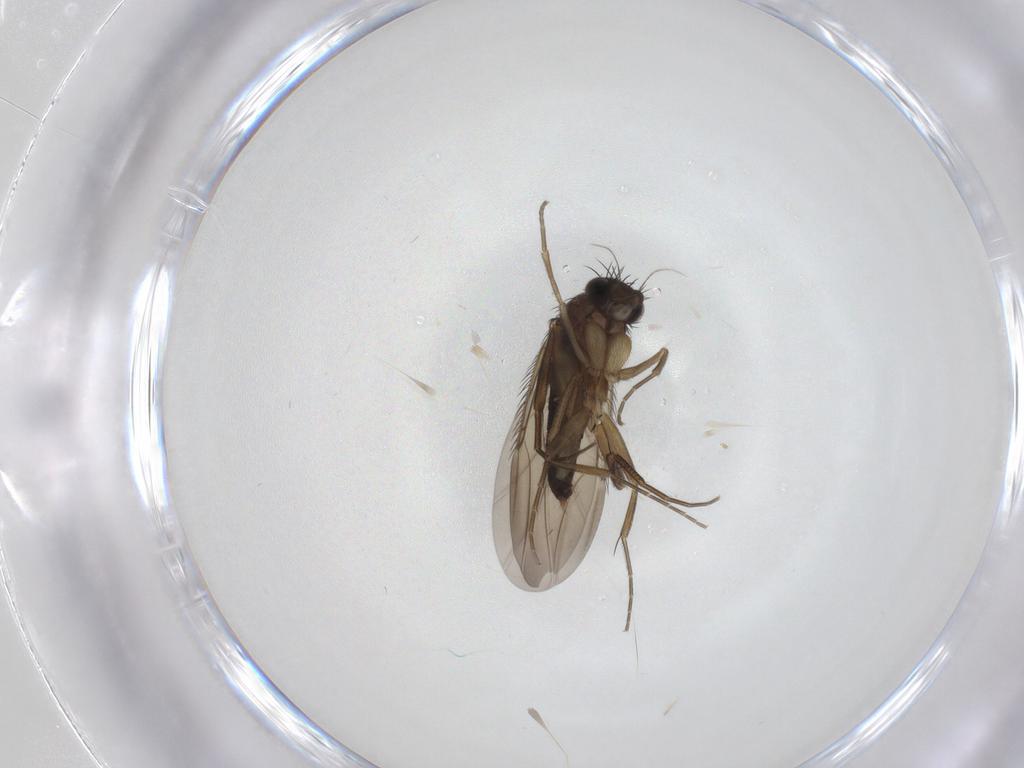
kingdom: Animalia
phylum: Arthropoda
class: Insecta
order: Diptera
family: Phoridae
